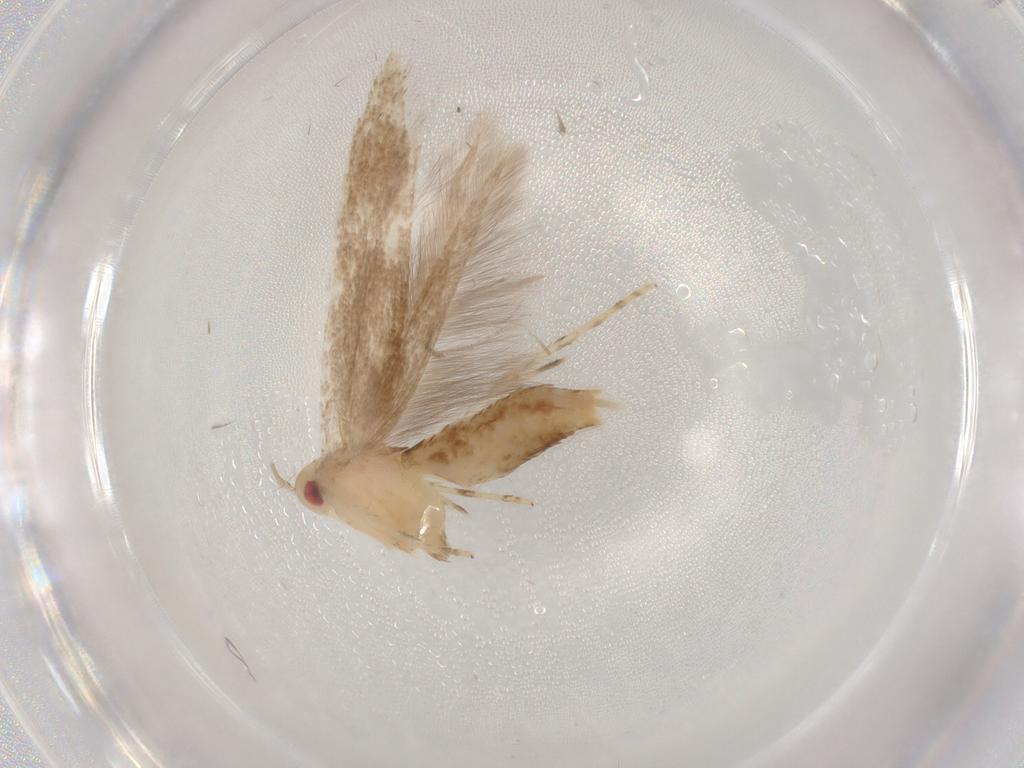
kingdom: Animalia
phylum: Arthropoda
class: Insecta
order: Lepidoptera
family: Erebidae
